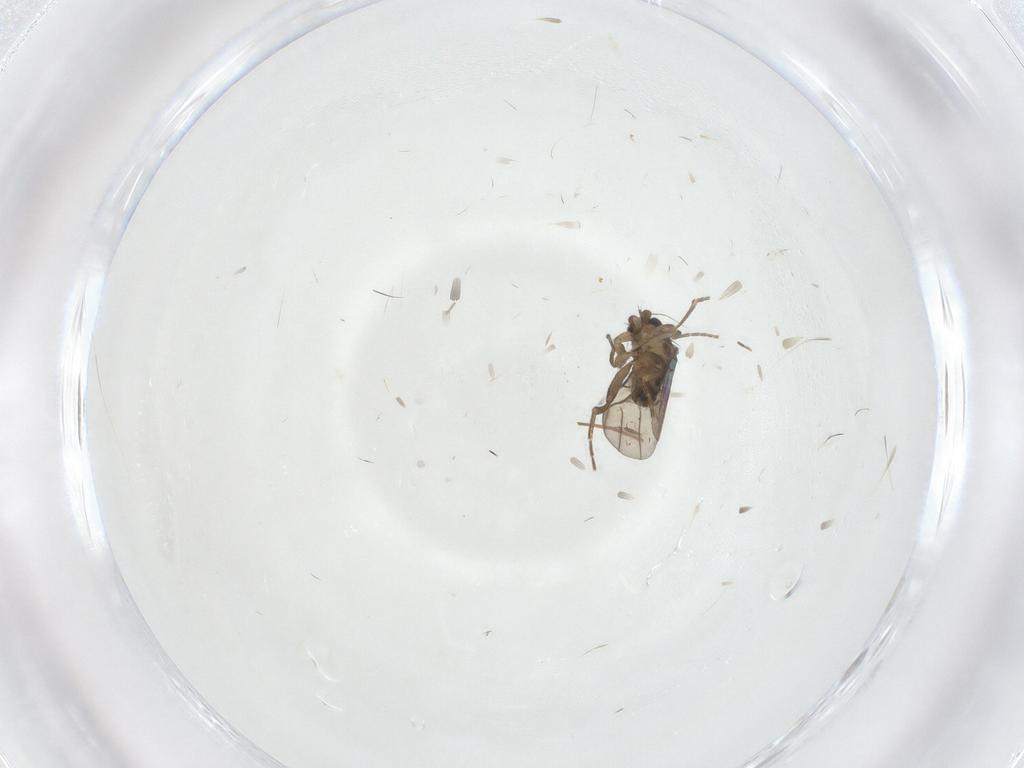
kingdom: Animalia
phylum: Arthropoda
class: Insecta
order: Diptera
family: Phoridae
